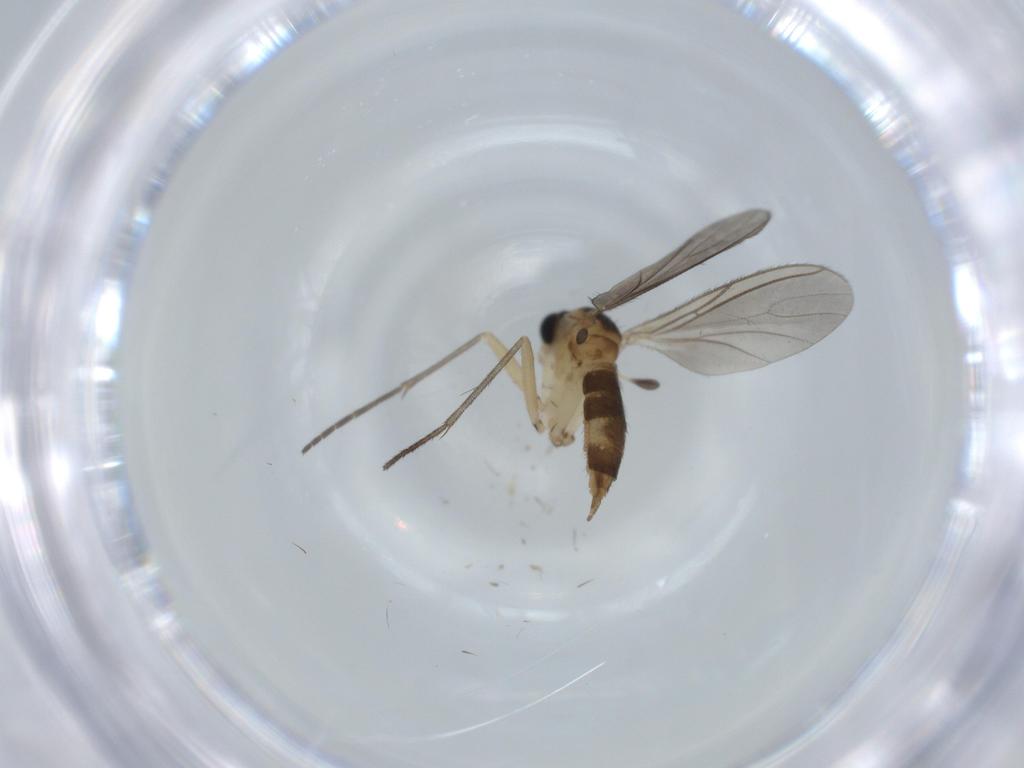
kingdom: Animalia
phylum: Arthropoda
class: Insecta
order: Diptera
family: Sciaridae
